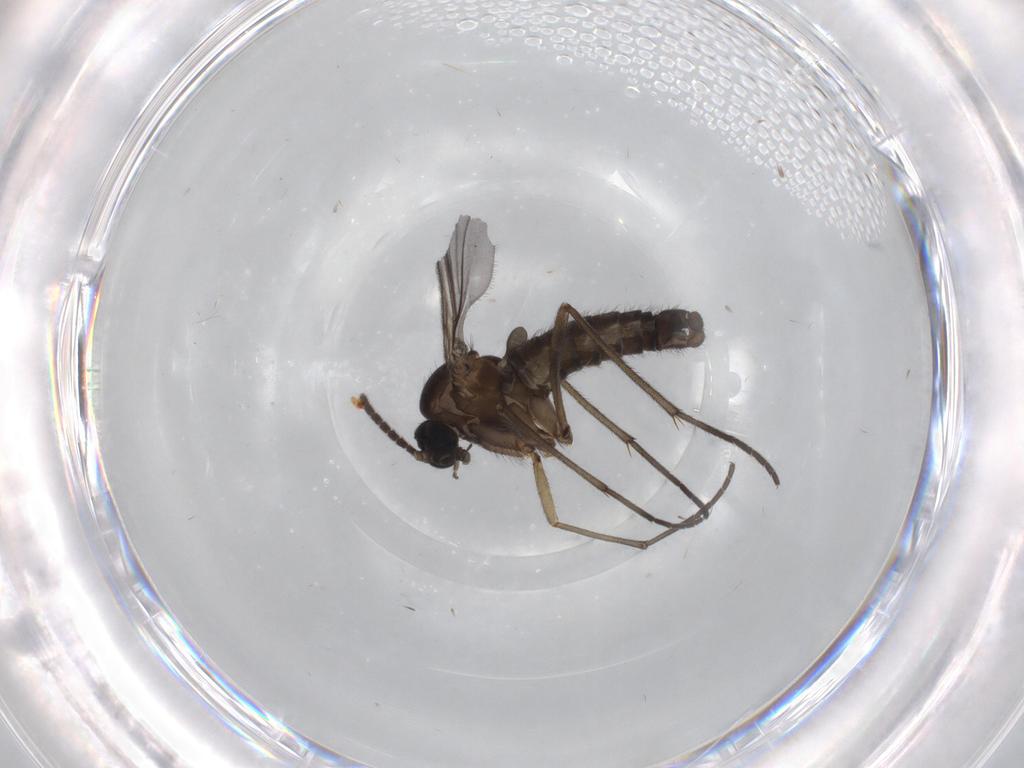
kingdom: Animalia
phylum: Arthropoda
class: Insecta
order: Diptera
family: Sciaridae
